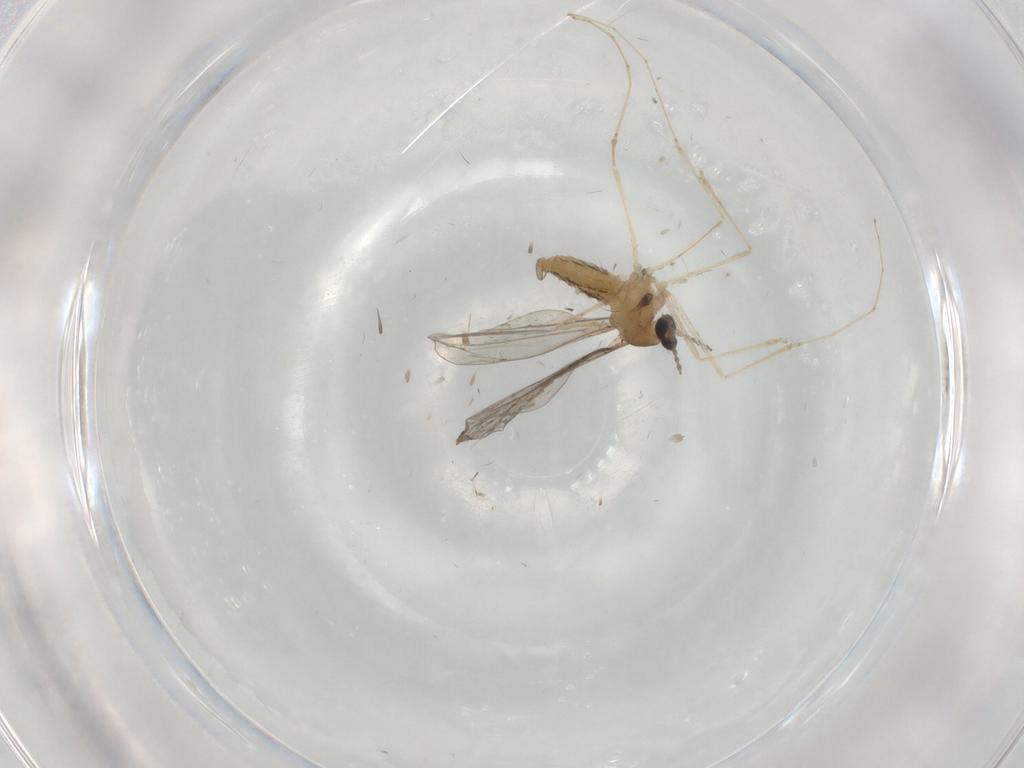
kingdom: Animalia
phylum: Arthropoda
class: Insecta
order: Diptera
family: Cecidomyiidae
